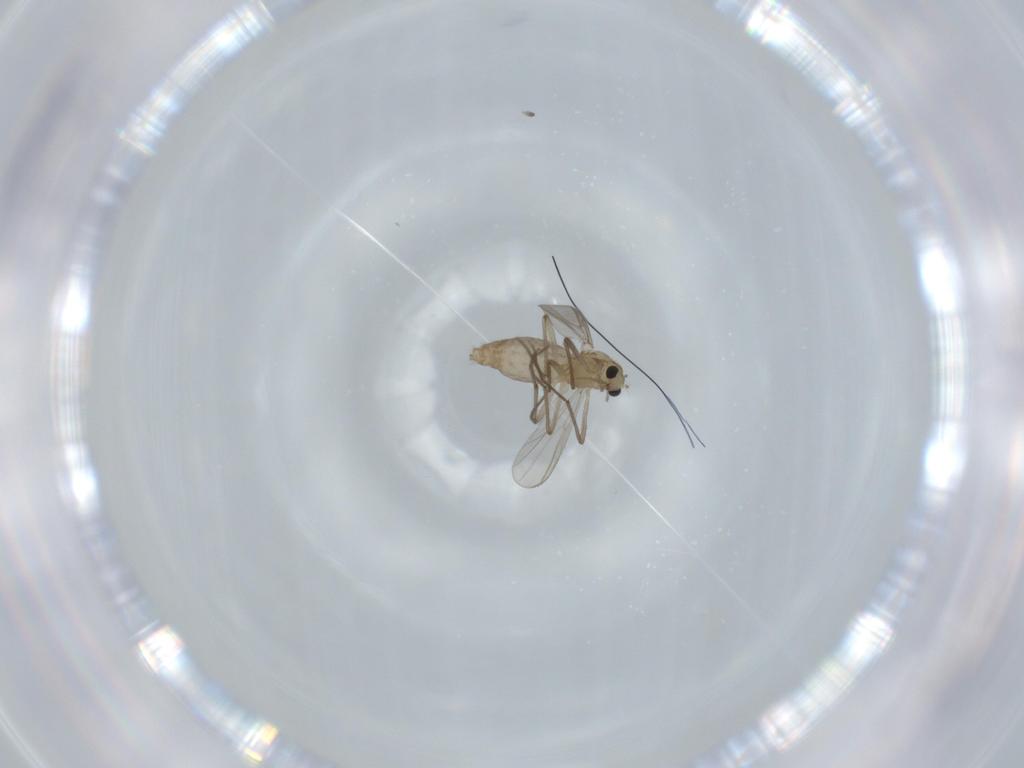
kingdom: Animalia
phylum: Arthropoda
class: Insecta
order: Diptera
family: Chironomidae
